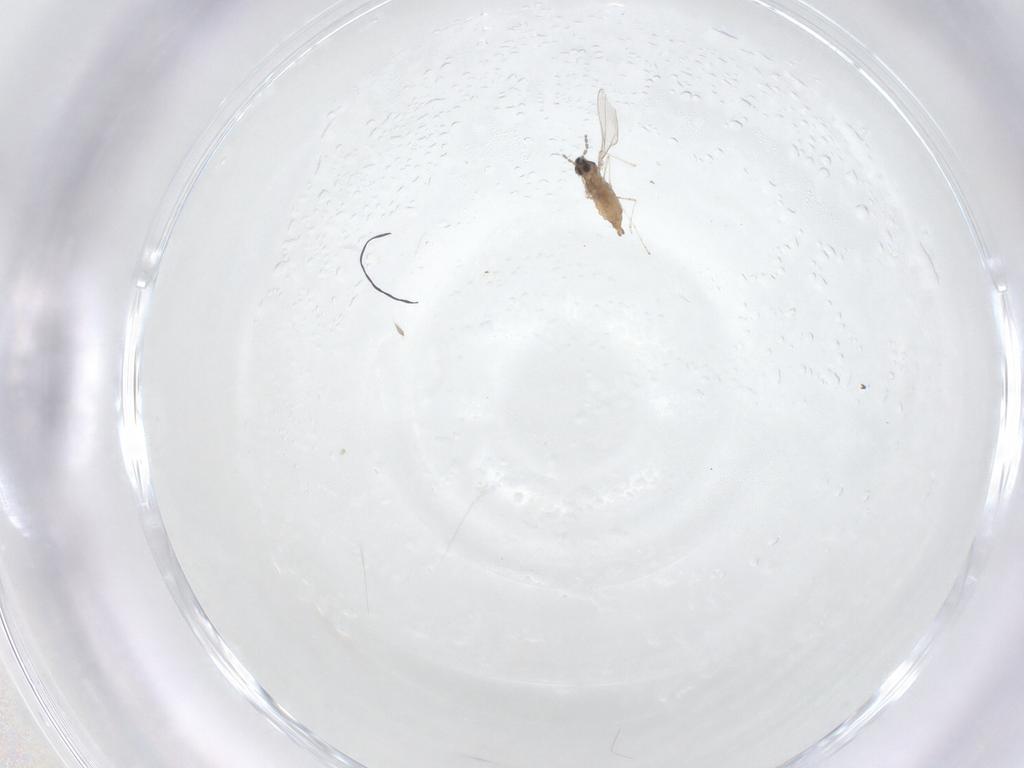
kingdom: Animalia
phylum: Arthropoda
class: Insecta
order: Diptera
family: Cecidomyiidae
